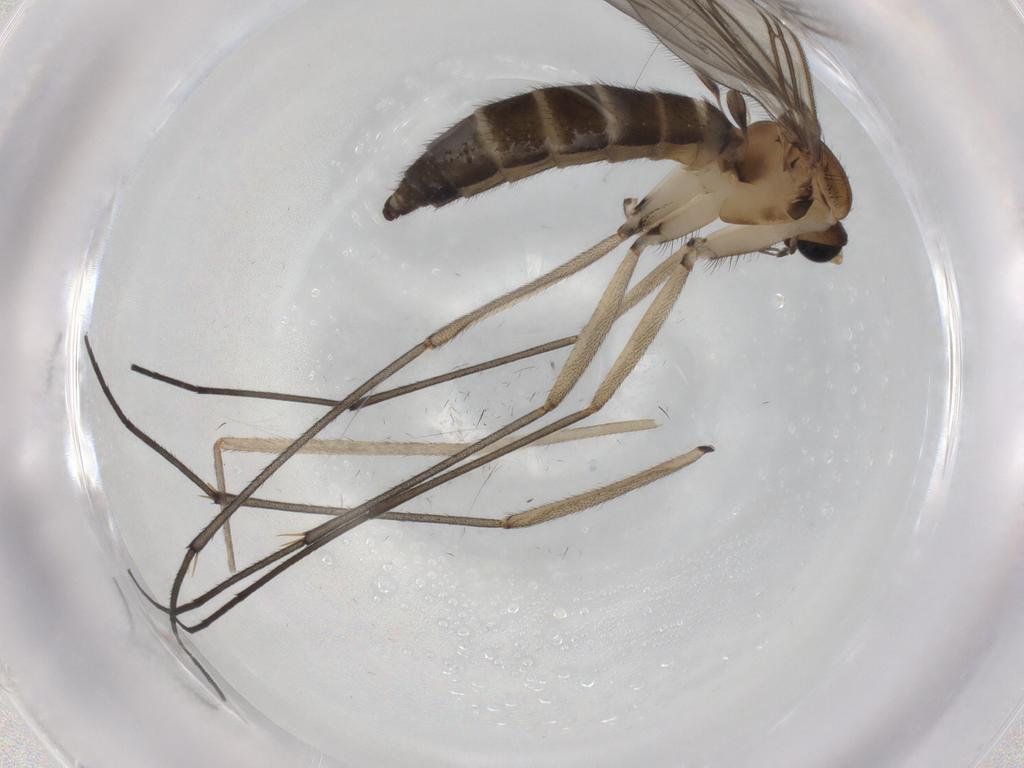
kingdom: Animalia
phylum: Arthropoda
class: Insecta
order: Diptera
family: Sciaridae
